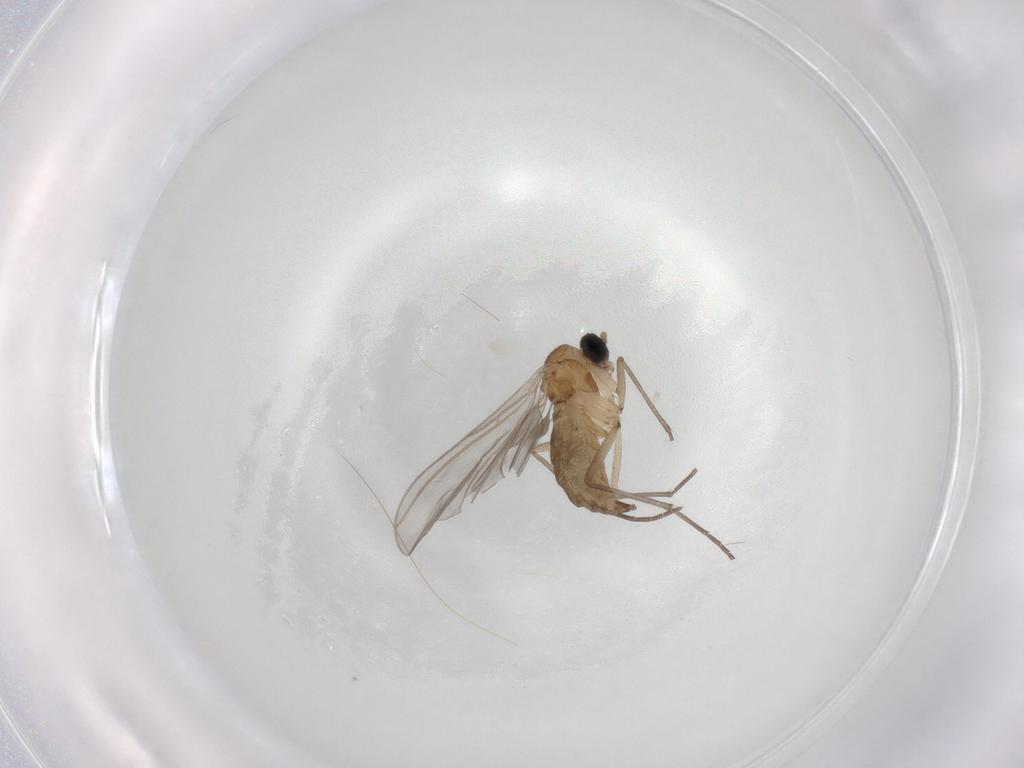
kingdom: Animalia
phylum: Arthropoda
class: Insecta
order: Diptera
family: Sciaridae
